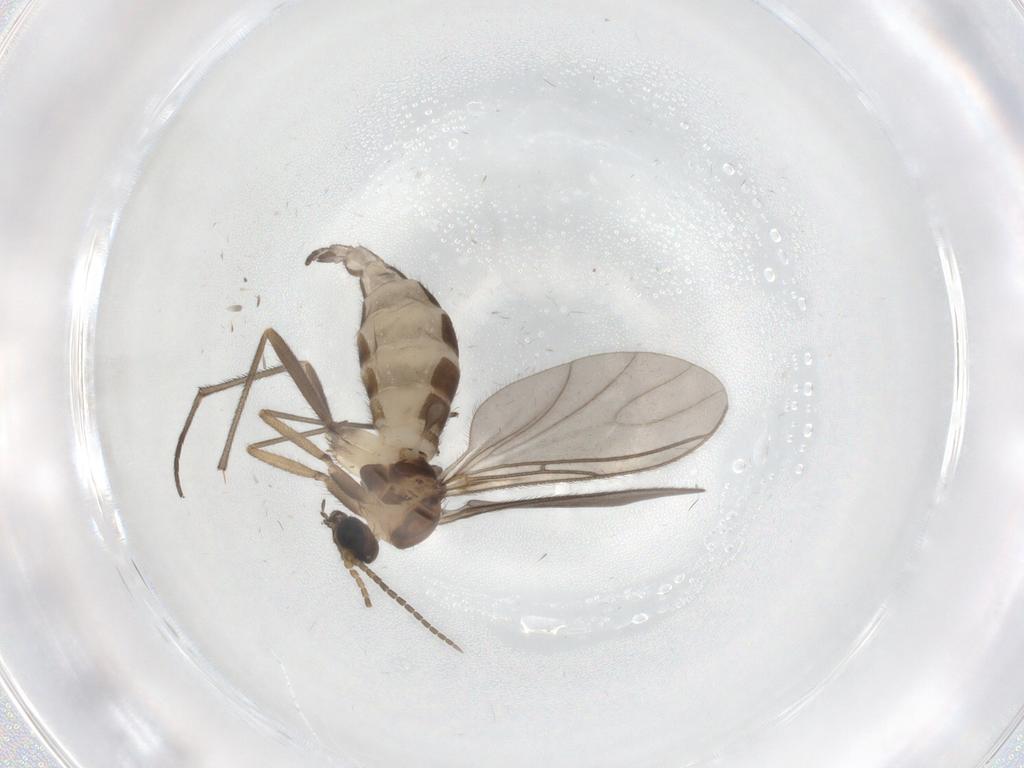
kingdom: Animalia
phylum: Arthropoda
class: Insecta
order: Diptera
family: Sciaridae
